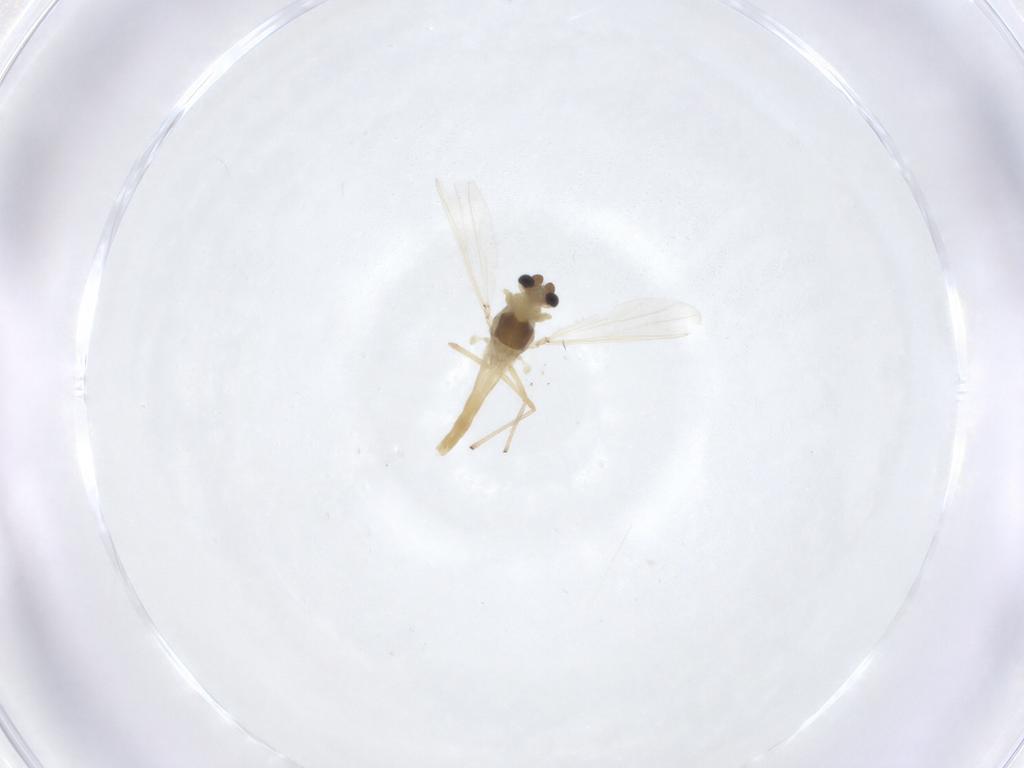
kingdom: Animalia
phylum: Arthropoda
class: Insecta
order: Diptera
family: Chironomidae
